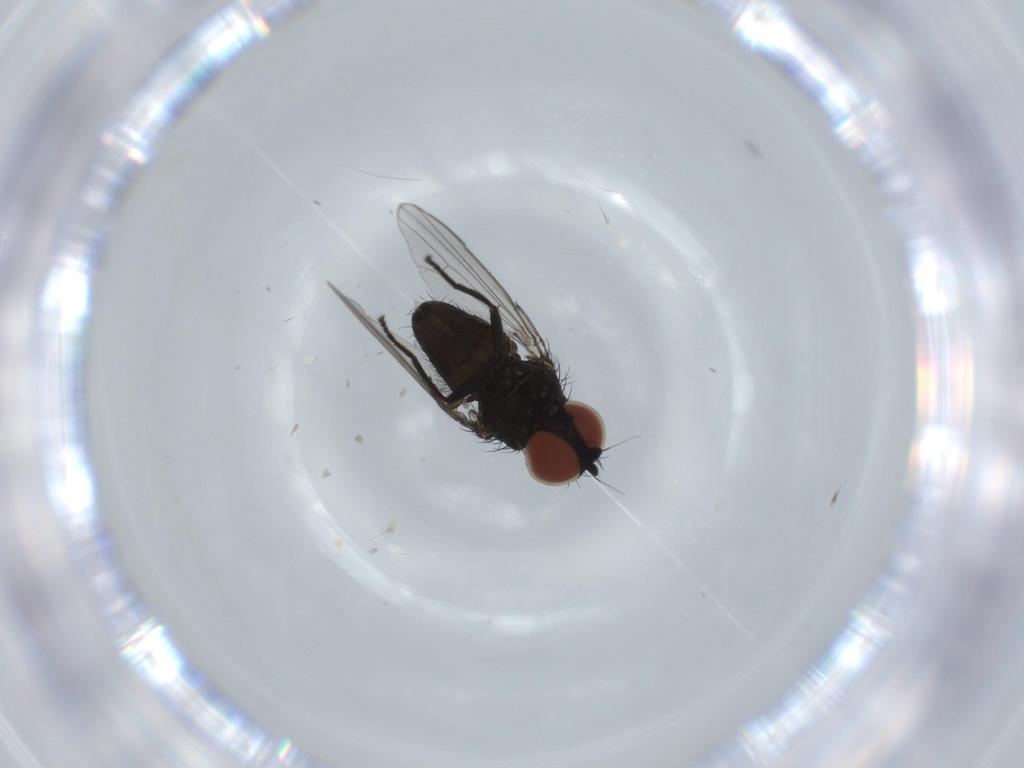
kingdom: Animalia
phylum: Arthropoda
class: Insecta
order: Diptera
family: Milichiidae
